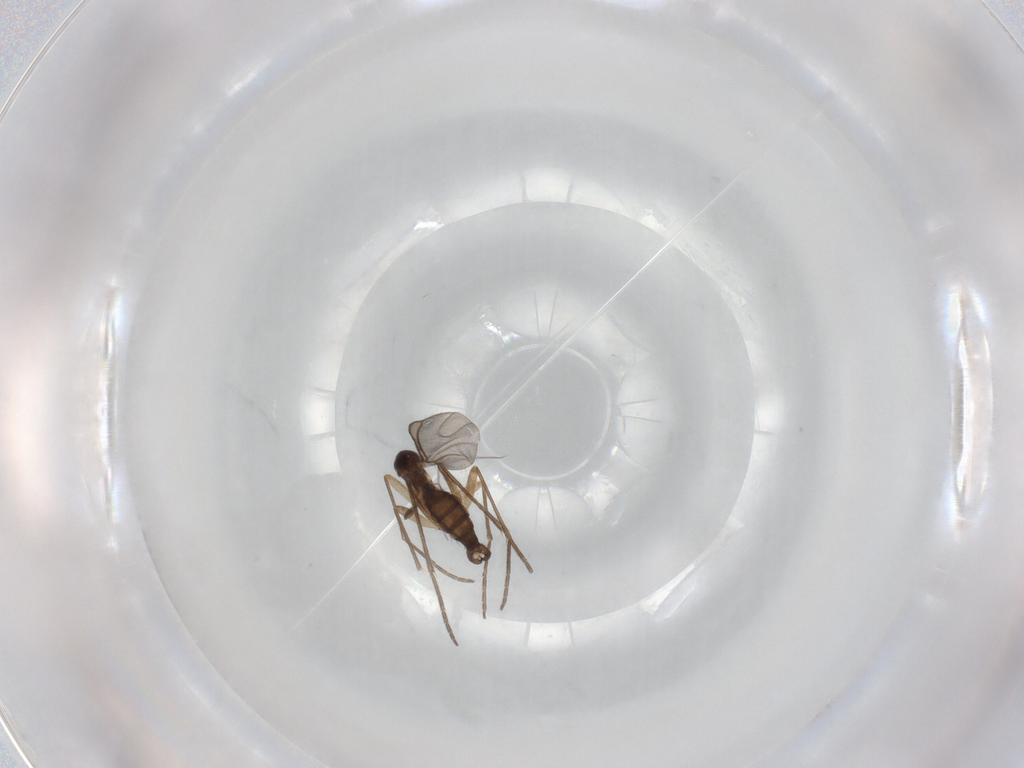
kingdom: Animalia
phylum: Arthropoda
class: Insecta
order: Diptera
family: Sciaridae
